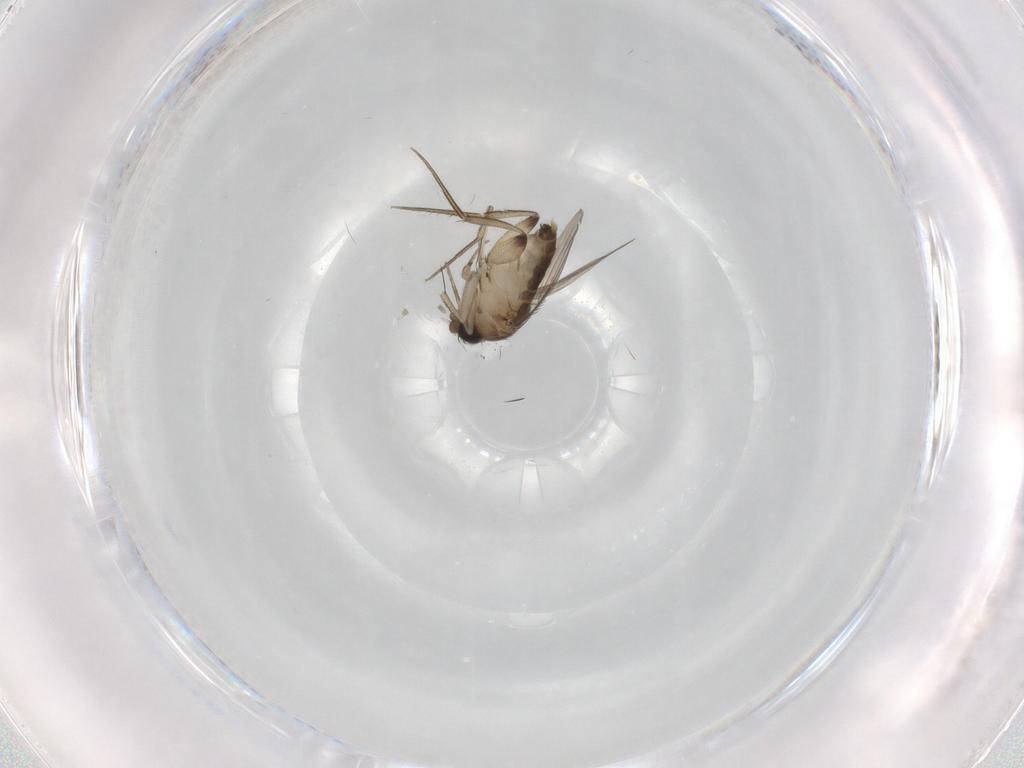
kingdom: Animalia
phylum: Arthropoda
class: Insecta
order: Diptera
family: Phoridae
